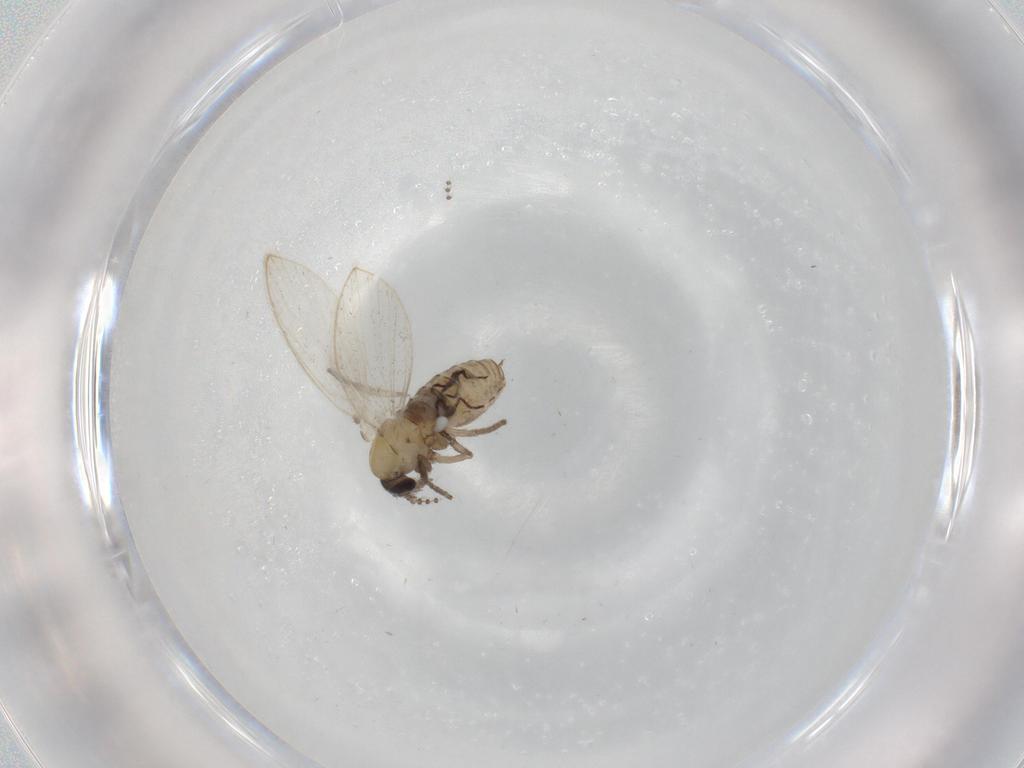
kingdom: Animalia
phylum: Arthropoda
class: Insecta
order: Diptera
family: Psychodidae
